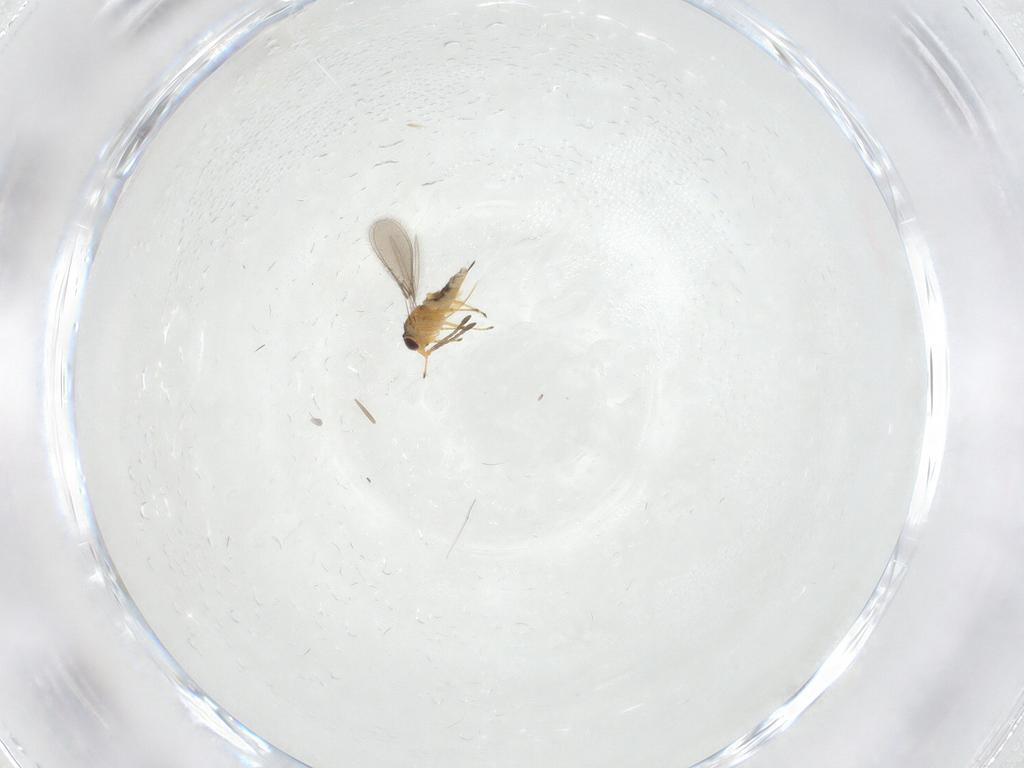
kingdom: Animalia
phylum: Arthropoda
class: Insecta
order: Hymenoptera
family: Mymaridae
